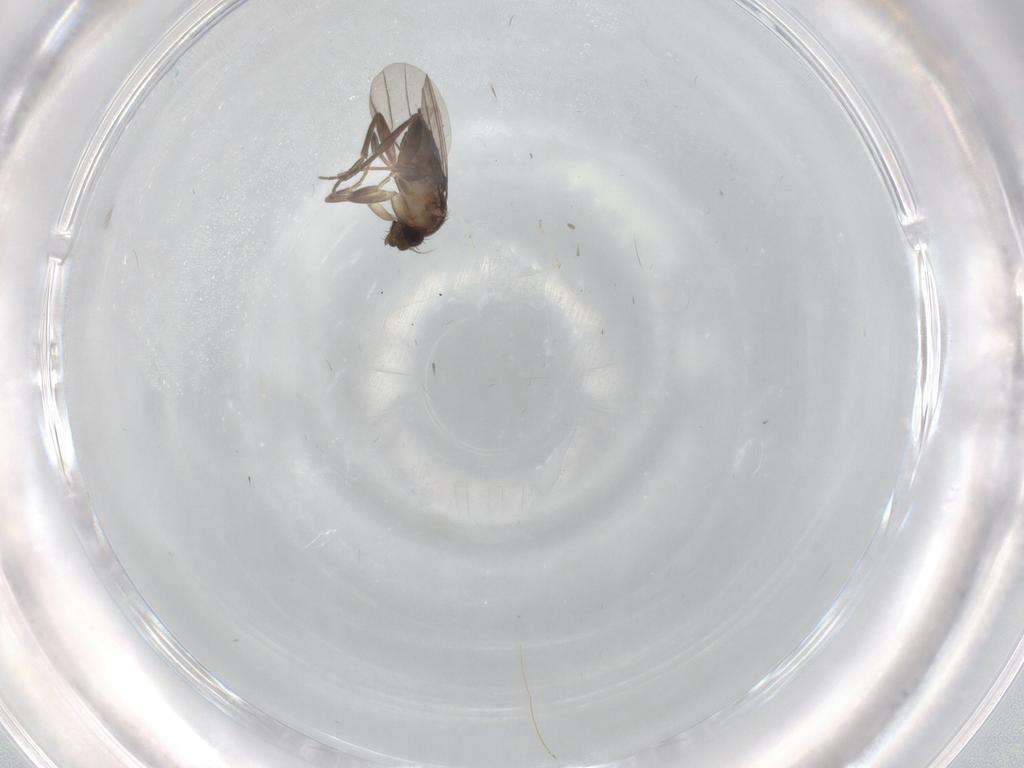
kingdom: Animalia
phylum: Arthropoda
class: Insecta
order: Diptera
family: Cecidomyiidae
